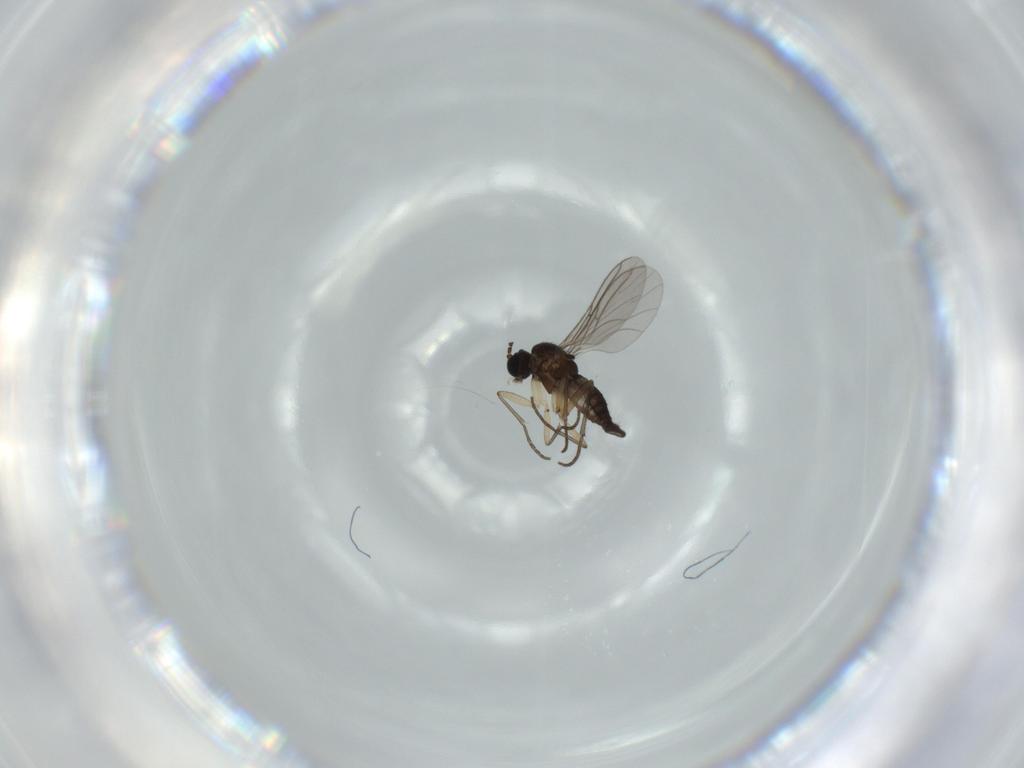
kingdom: Animalia
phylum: Arthropoda
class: Insecta
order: Diptera
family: Sciaridae
